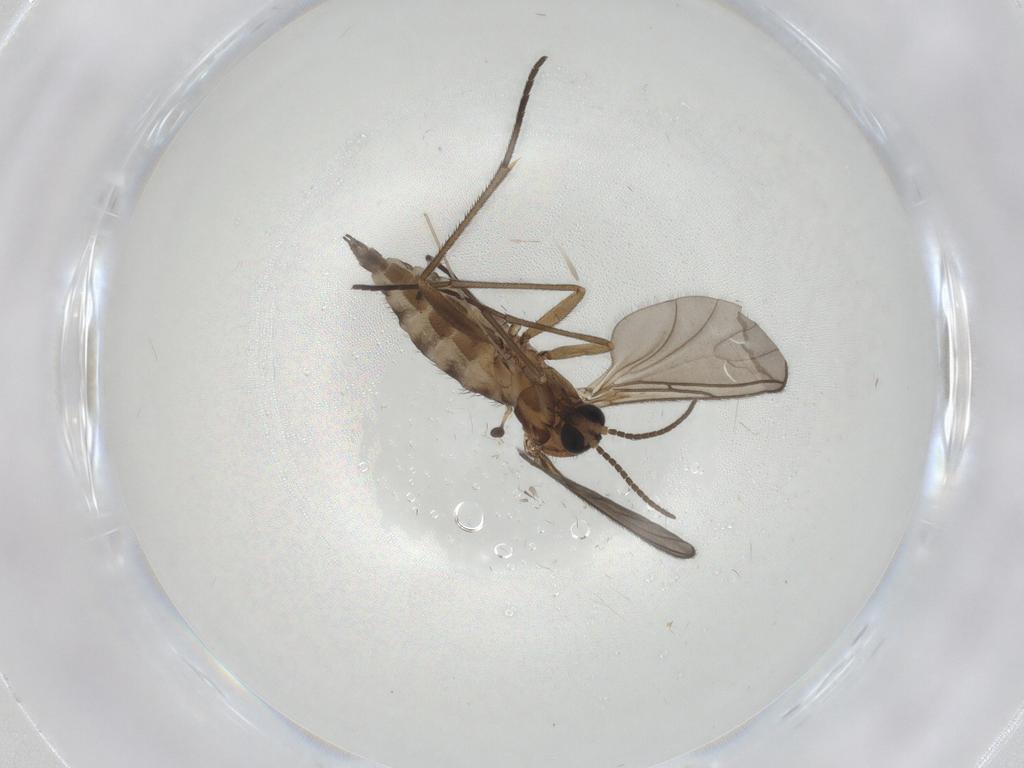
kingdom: Animalia
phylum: Arthropoda
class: Insecta
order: Diptera
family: Sciaridae
